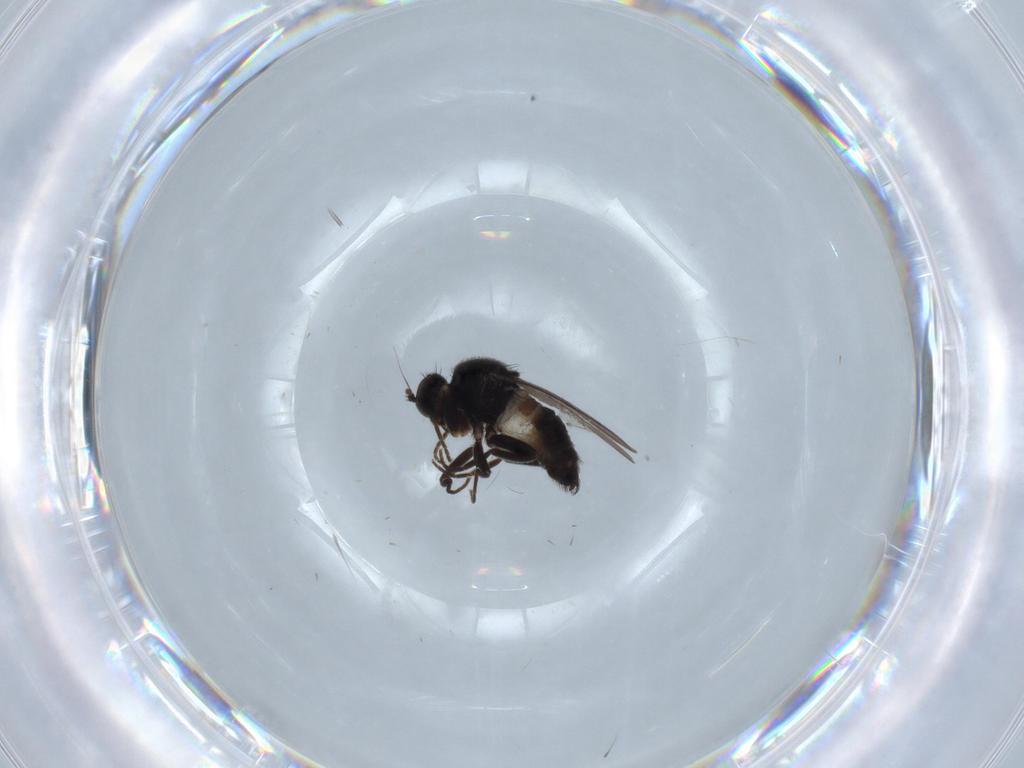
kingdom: Animalia
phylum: Arthropoda
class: Insecta
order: Diptera
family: Hybotidae
